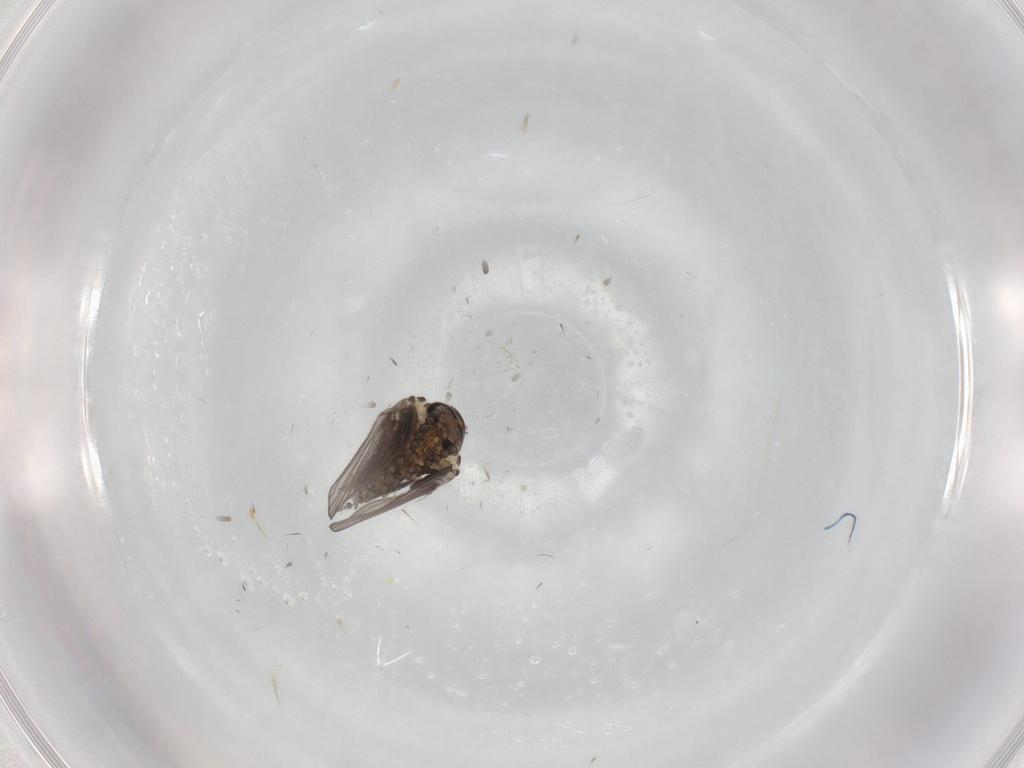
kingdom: Animalia
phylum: Arthropoda
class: Insecta
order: Diptera
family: Psychodidae
